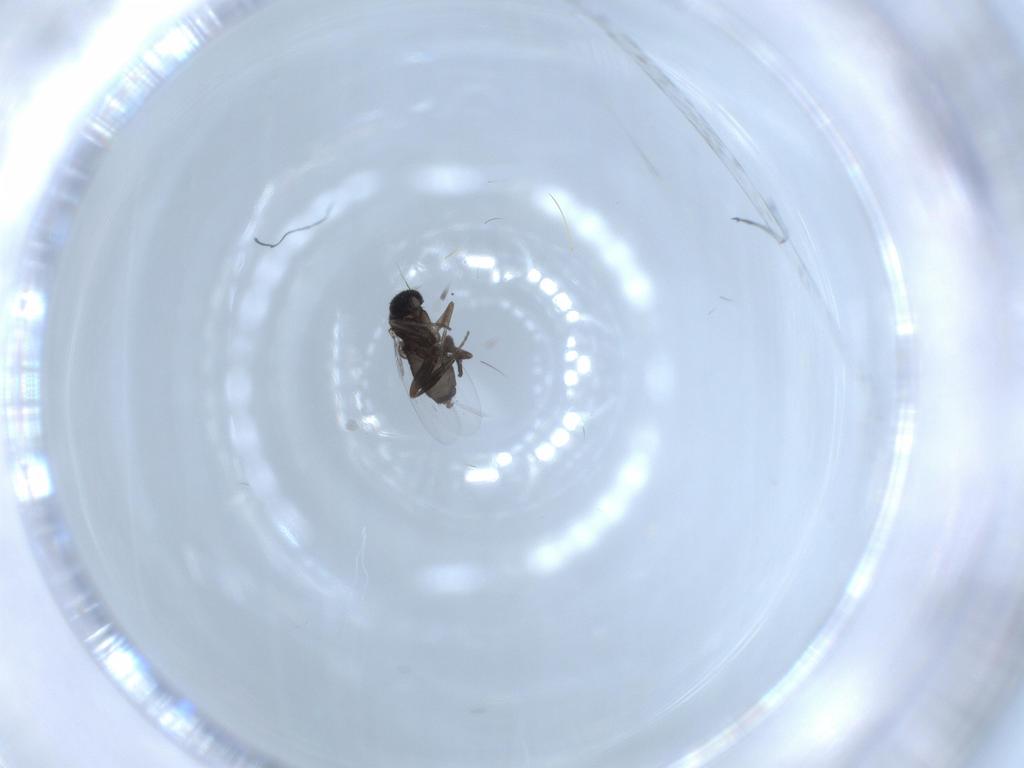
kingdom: Animalia
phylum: Arthropoda
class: Insecta
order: Diptera
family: Phoridae
